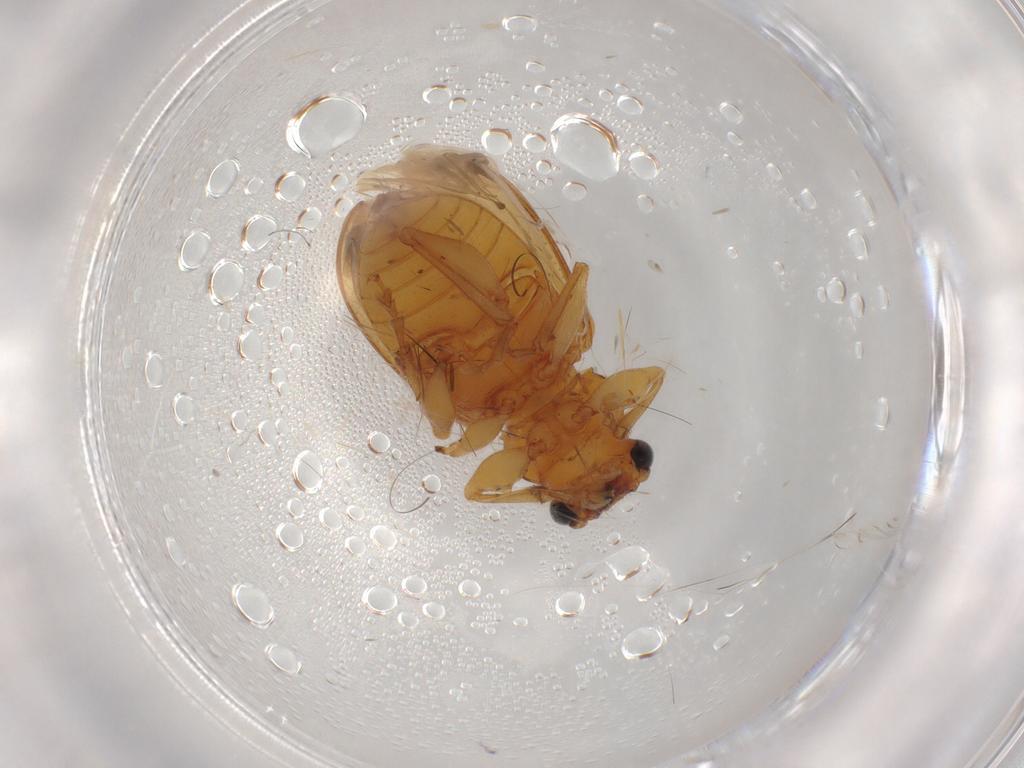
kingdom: Animalia
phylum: Arthropoda
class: Insecta
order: Coleoptera
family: Chrysomelidae
